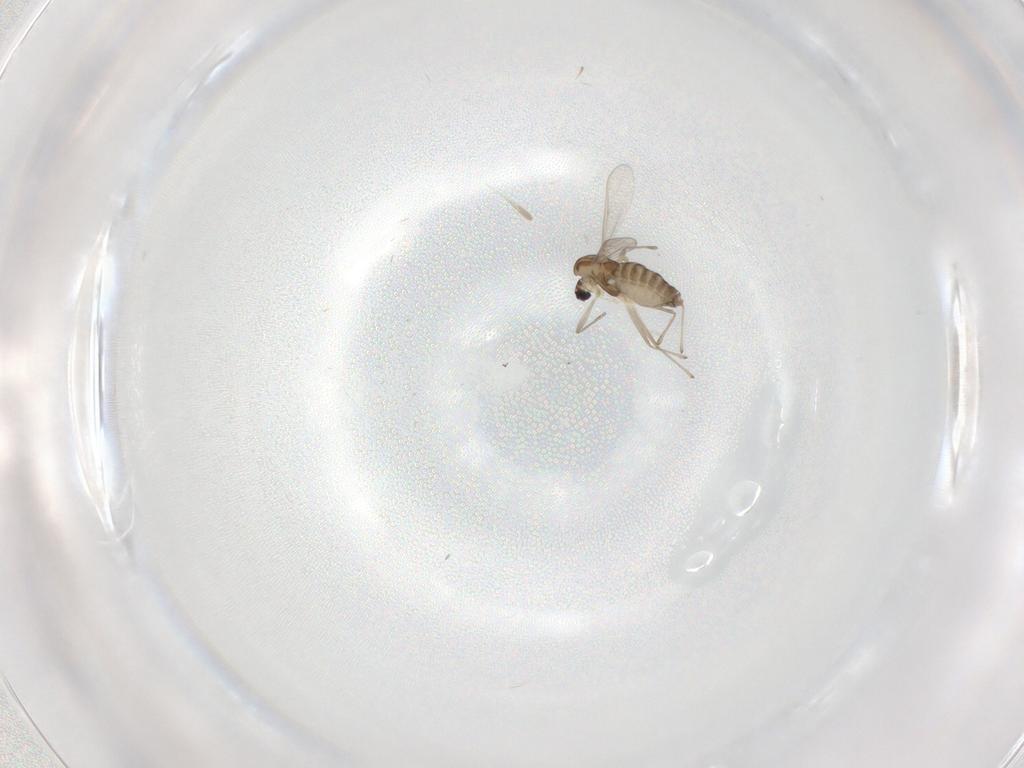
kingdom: Animalia
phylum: Arthropoda
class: Insecta
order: Diptera
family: Chironomidae
